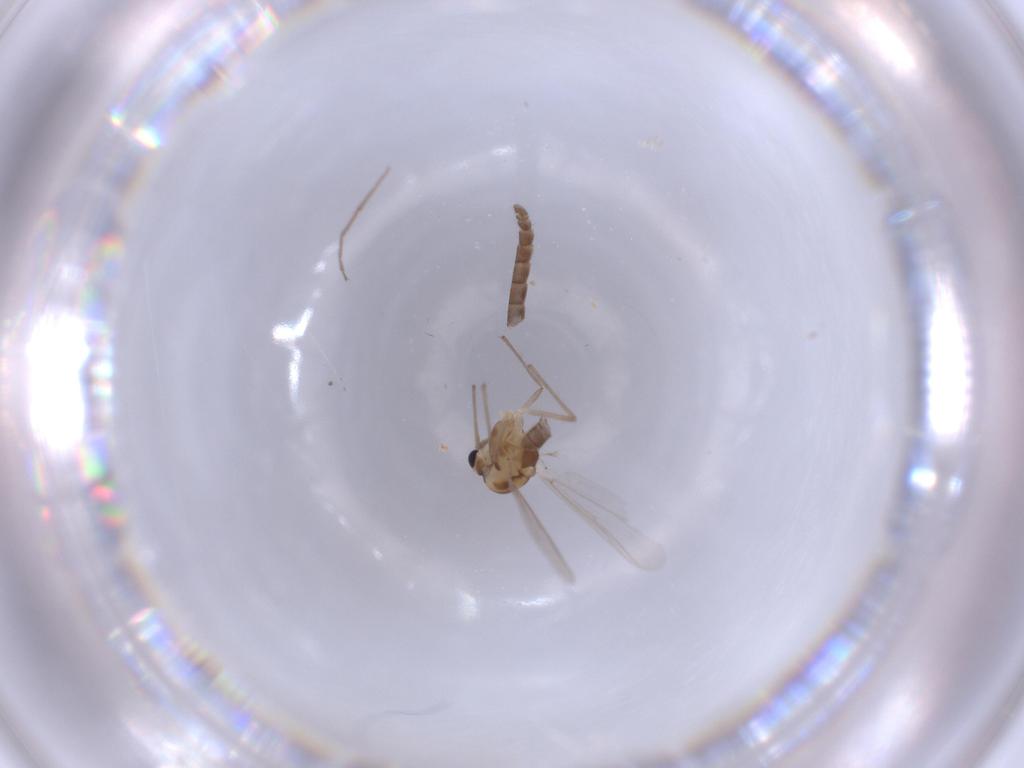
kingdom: Animalia
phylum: Arthropoda
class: Insecta
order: Diptera
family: Chironomidae
